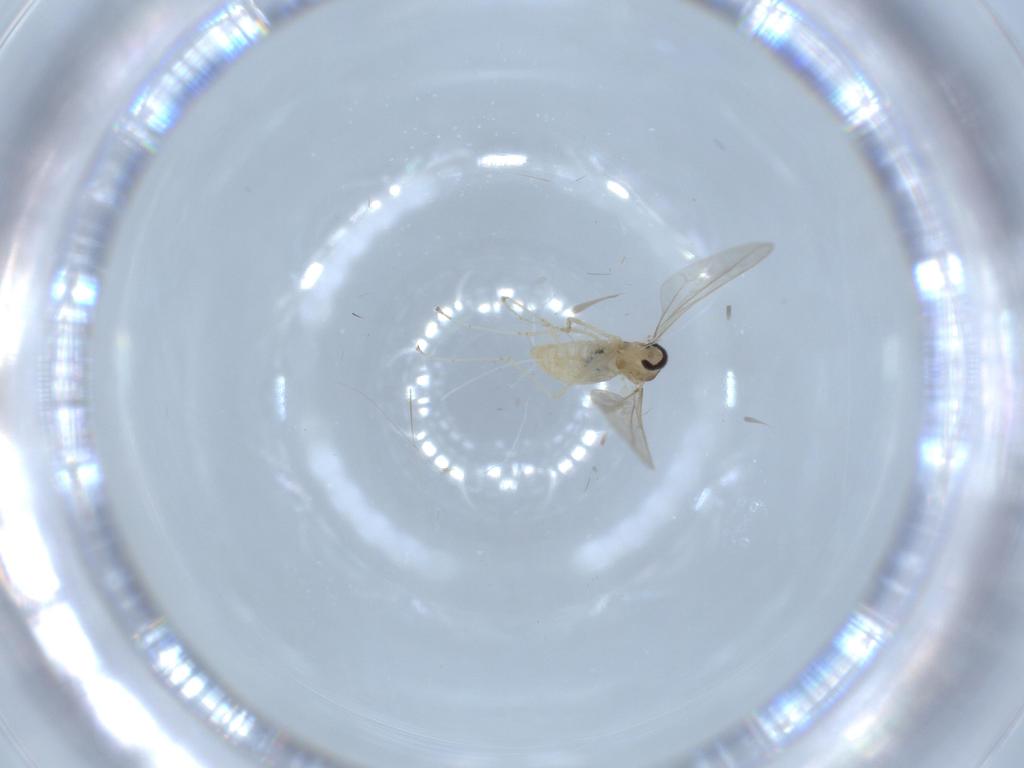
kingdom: Animalia
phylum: Arthropoda
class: Insecta
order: Diptera
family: Cecidomyiidae
